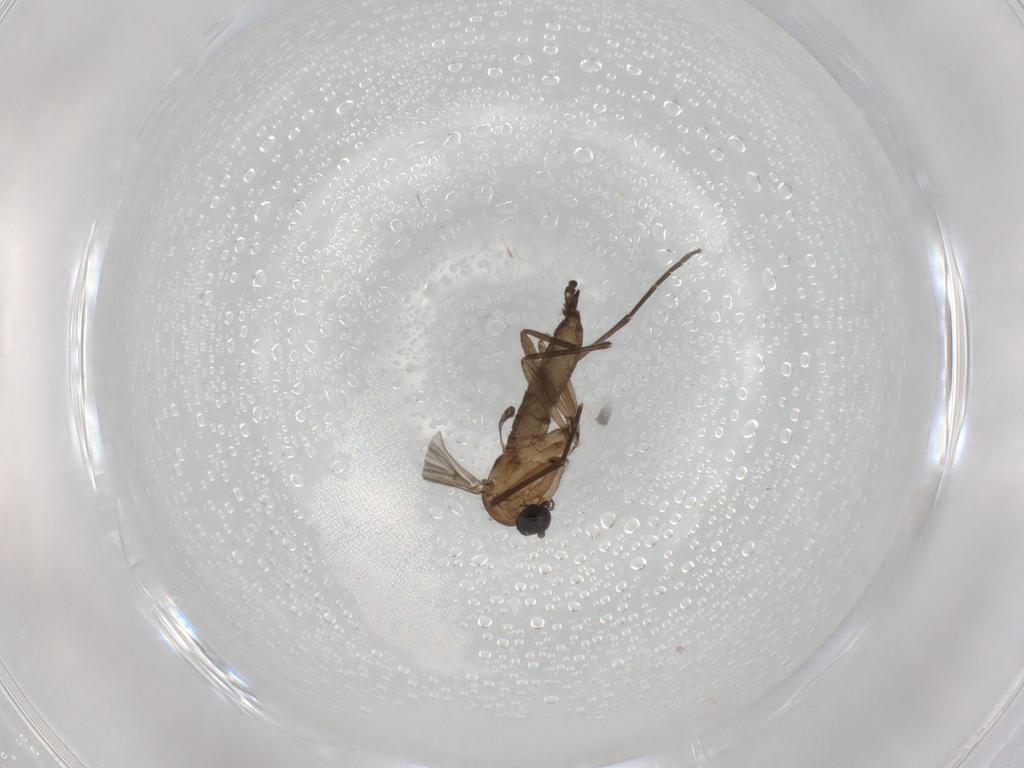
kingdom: Animalia
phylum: Arthropoda
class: Insecta
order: Diptera
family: Sciaridae
